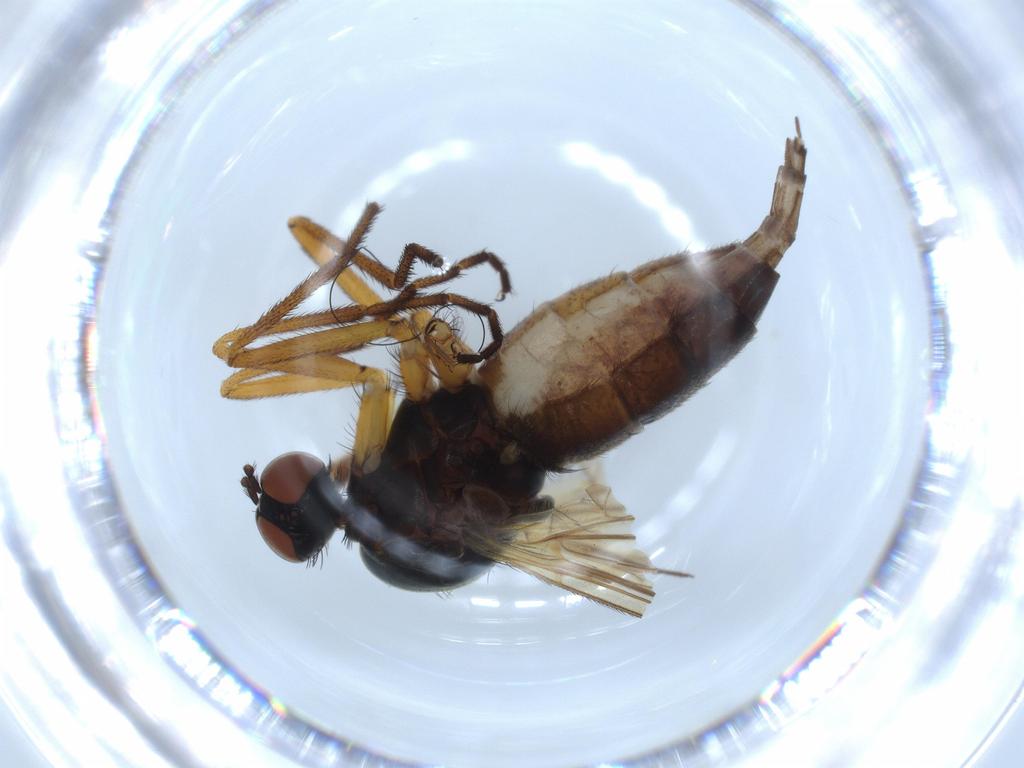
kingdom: Animalia
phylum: Arthropoda
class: Insecta
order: Diptera
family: Empididae
